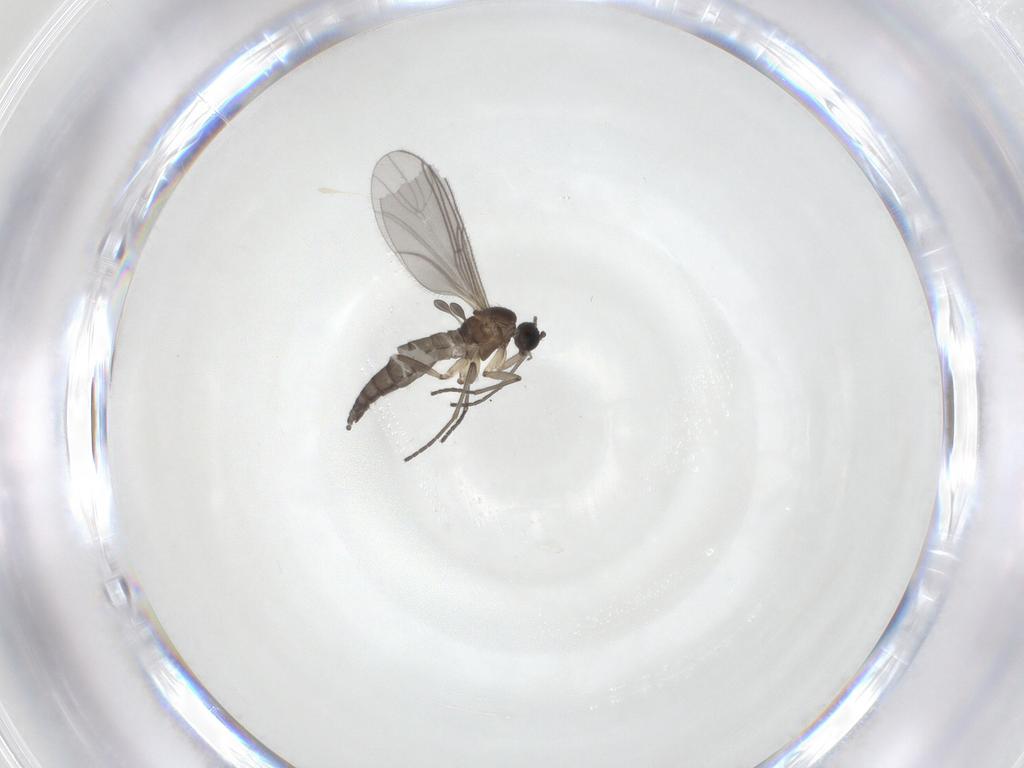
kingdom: Animalia
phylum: Arthropoda
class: Insecta
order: Diptera
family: Sciaridae
